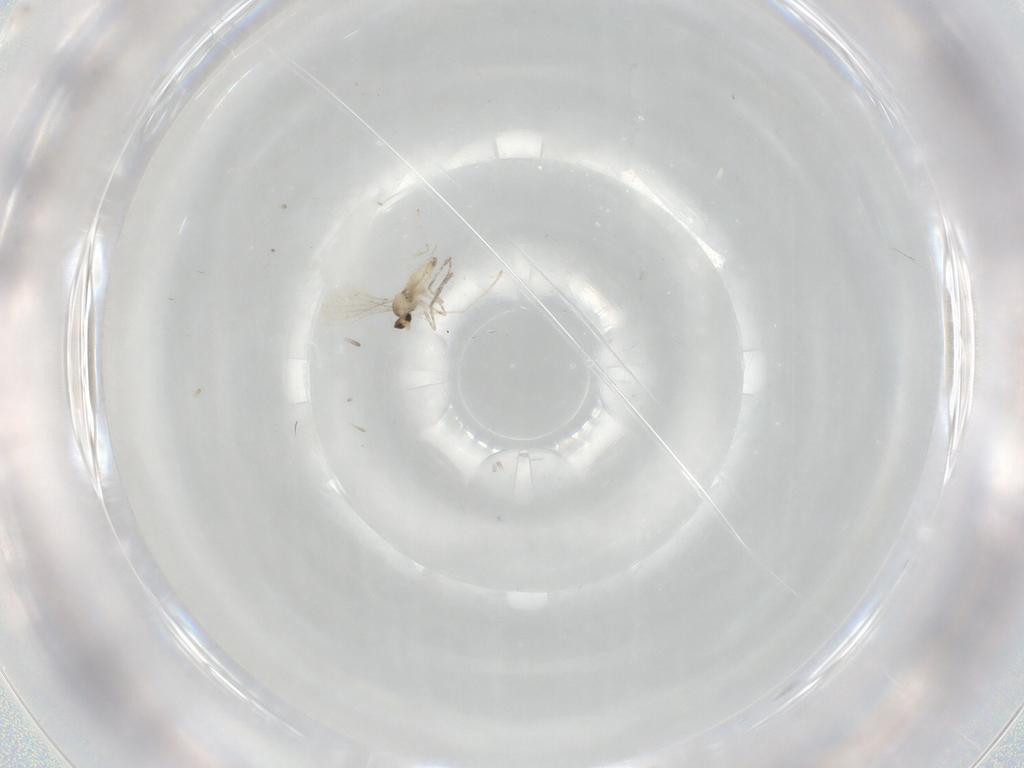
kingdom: Animalia
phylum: Arthropoda
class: Insecta
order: Diptera
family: Cecidomyiidae
